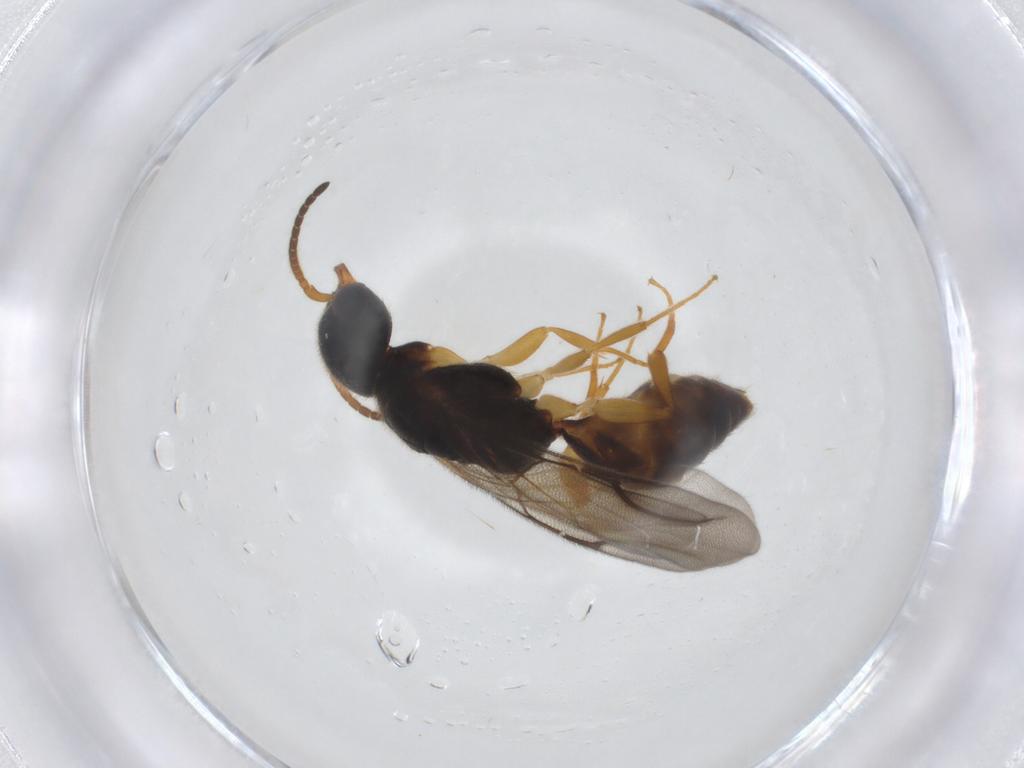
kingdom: Animalia
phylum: Arthropoda
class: Insecta
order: Hymenoptera
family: Bethylidae
